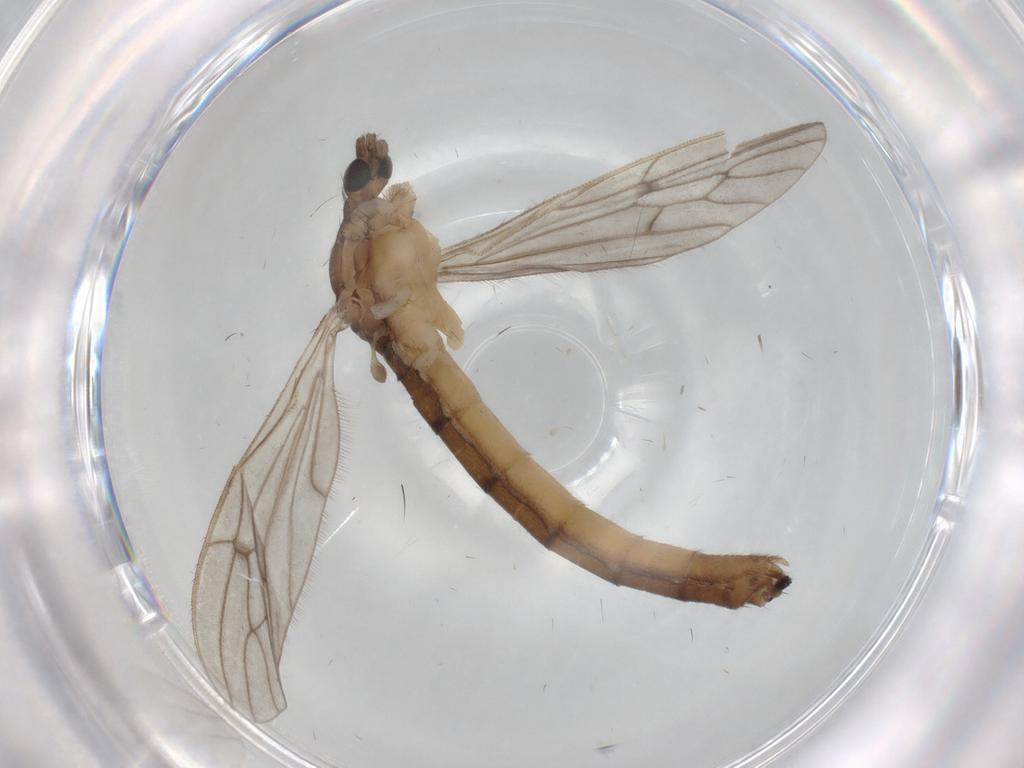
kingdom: Animalia
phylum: Arthropoda
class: Insecta
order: Diptera
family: Limoniidae
